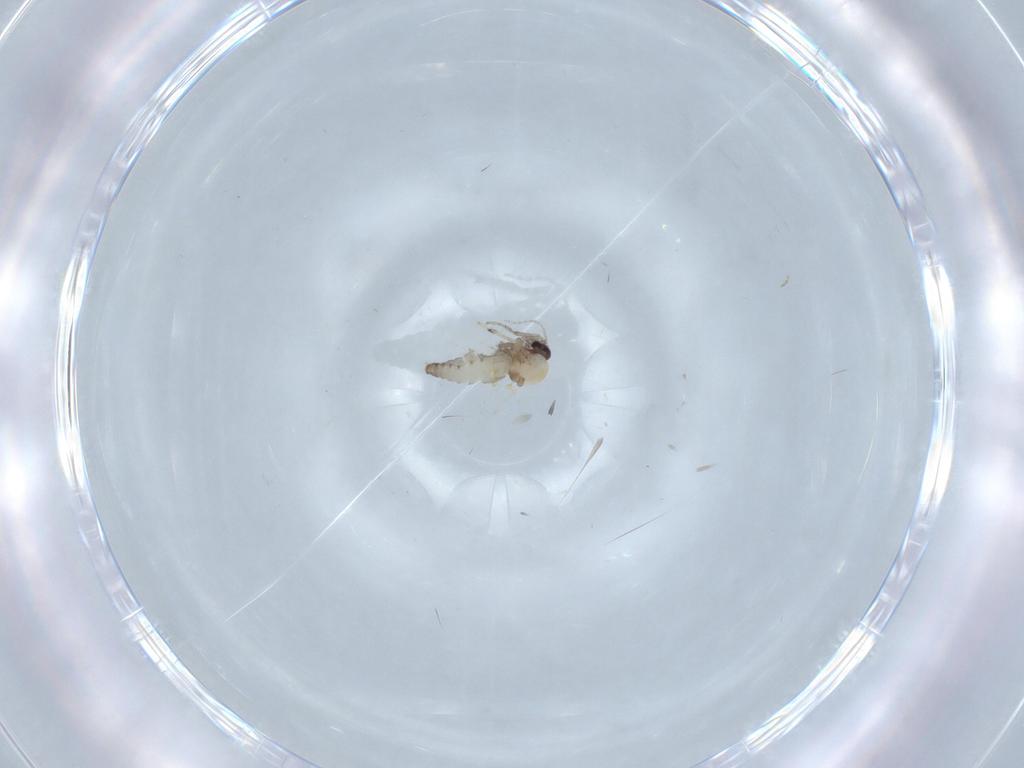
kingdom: Animalia
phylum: Arthropoda
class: Insecta
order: Diptera
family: Ceratopogonidae
